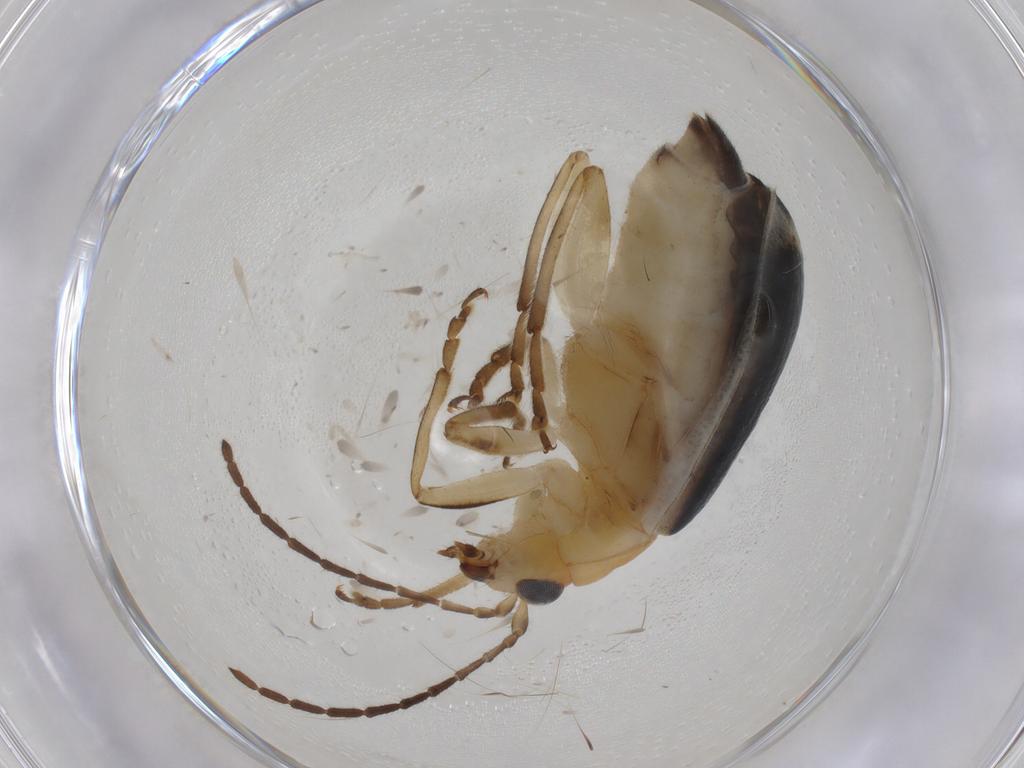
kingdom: Animalia
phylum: Arthropoda
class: Insecta
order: Coleoptera
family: Chrysomelidae
